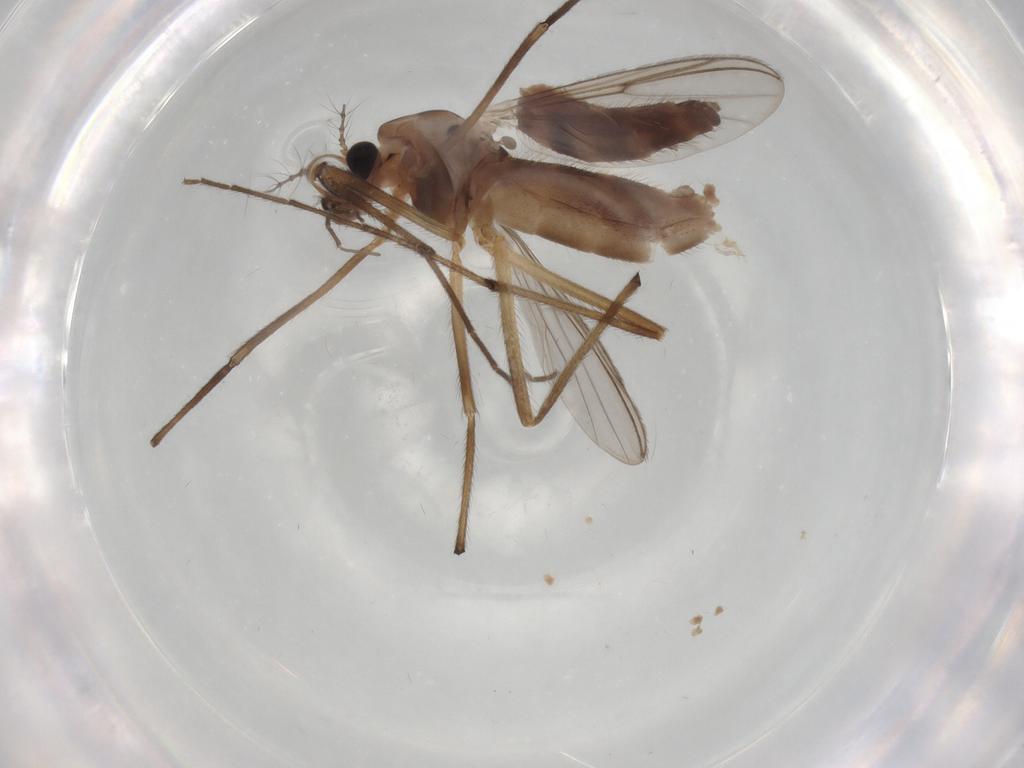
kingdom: Animalia
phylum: Arthropoda
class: Insecta
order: Diptera
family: Chironomidae
